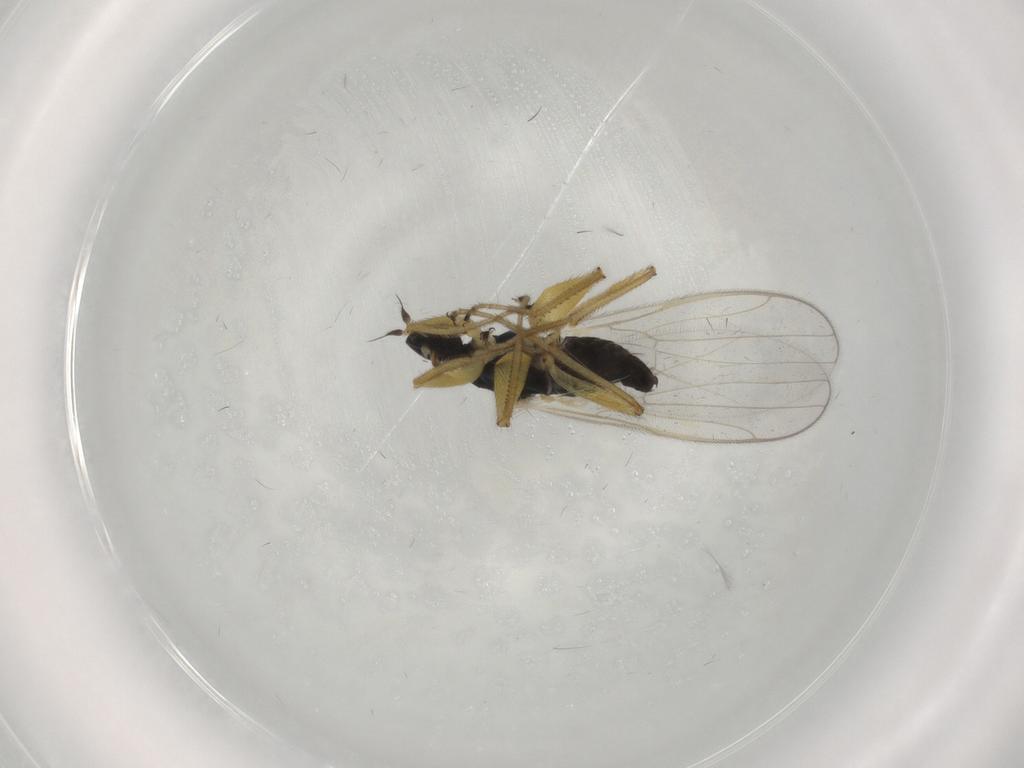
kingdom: Animalia
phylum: Arthropoda
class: Insecta
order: Diptera
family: Hybotidae
